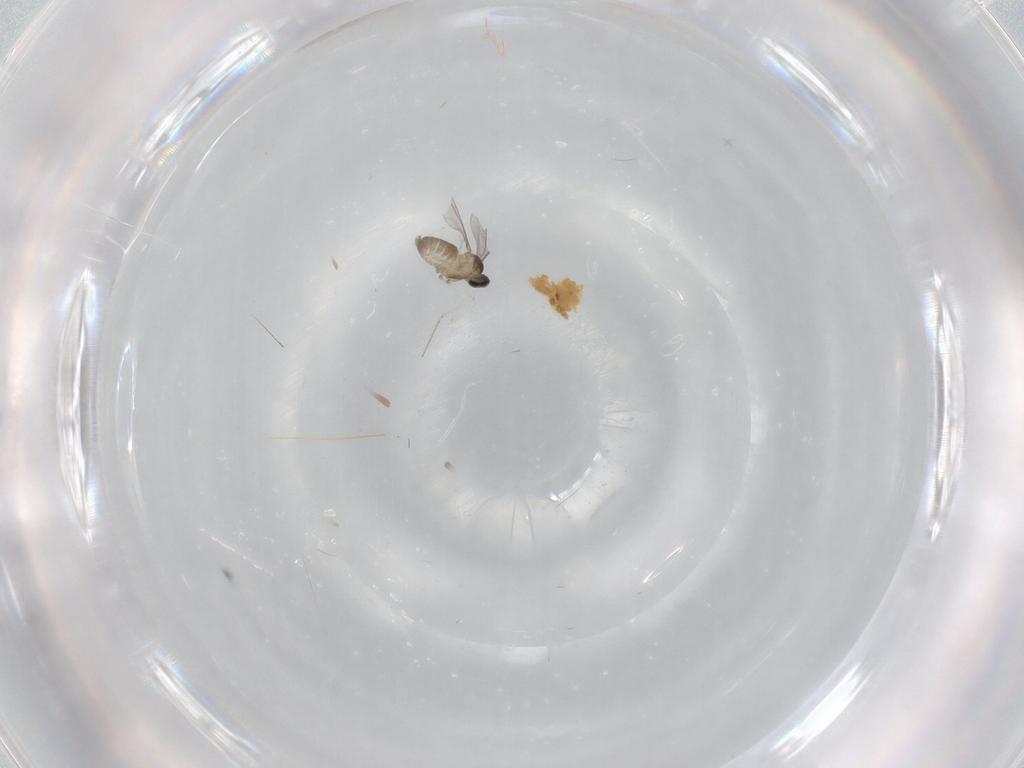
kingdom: Animalia
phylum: Arthropoda
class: Insecta
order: Diptera
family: Cecidomyiidae
